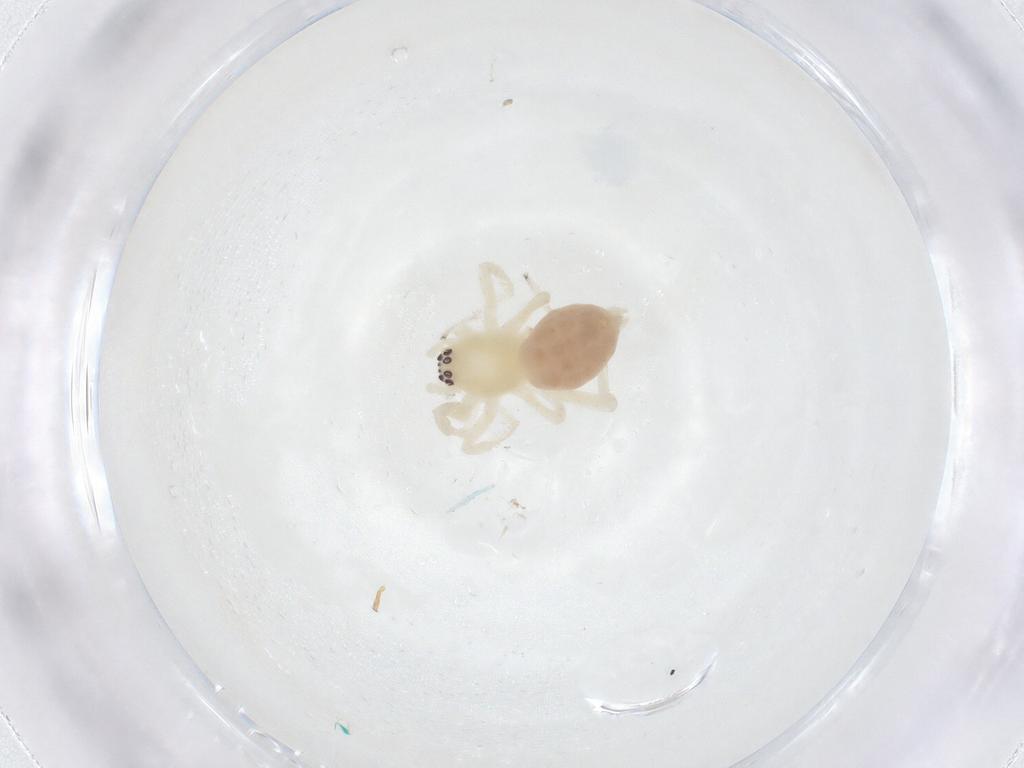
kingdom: Animalia
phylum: Arthropoda
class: Arachnida
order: Araneae
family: Anyphaenidae
